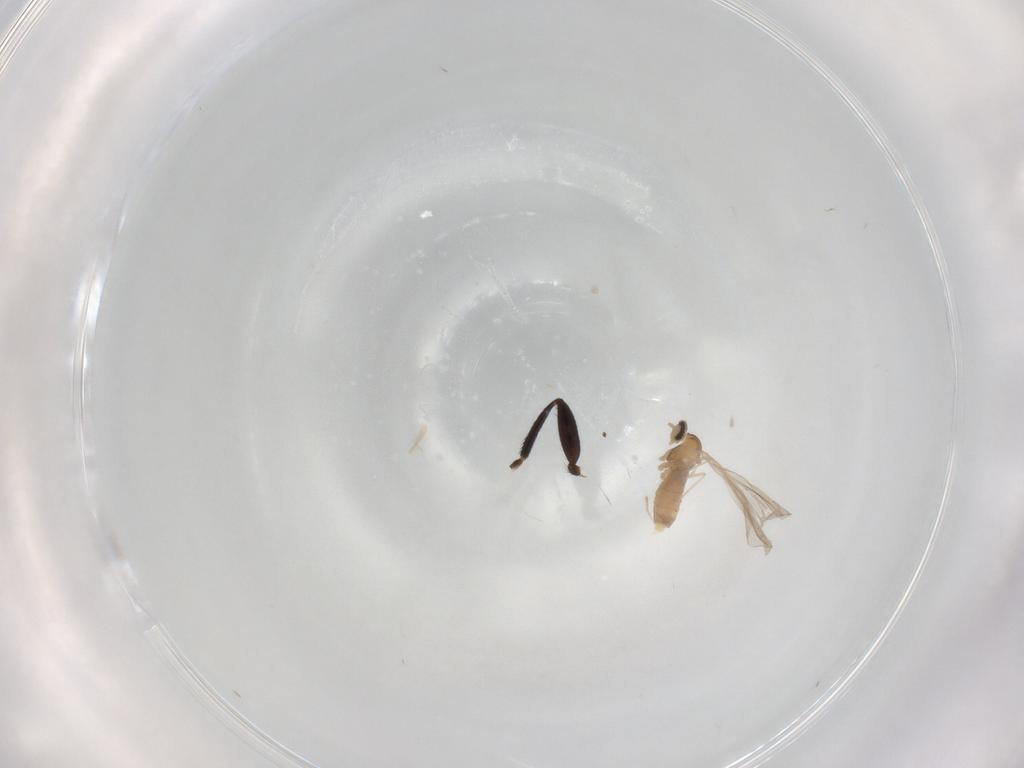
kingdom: Animalia
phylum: Arthropoda
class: Insecta
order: Diptera
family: Cecidomyiidae
